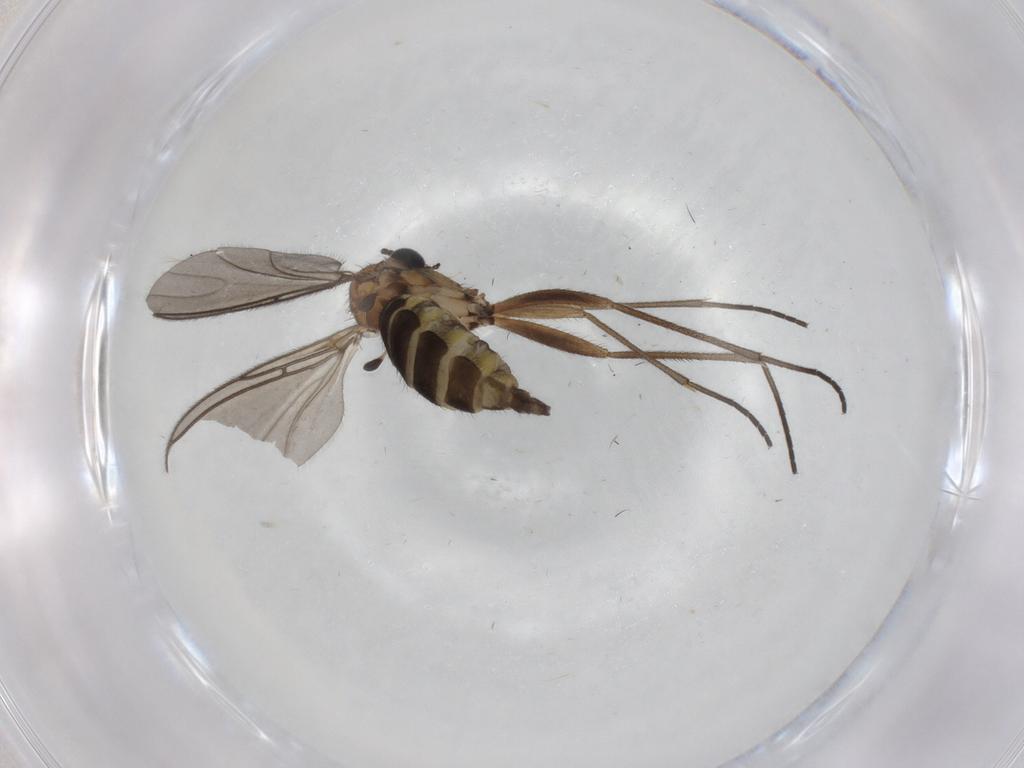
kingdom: Animalia
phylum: Arthropoda
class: Insecta
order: Diptera
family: Sciaridae
